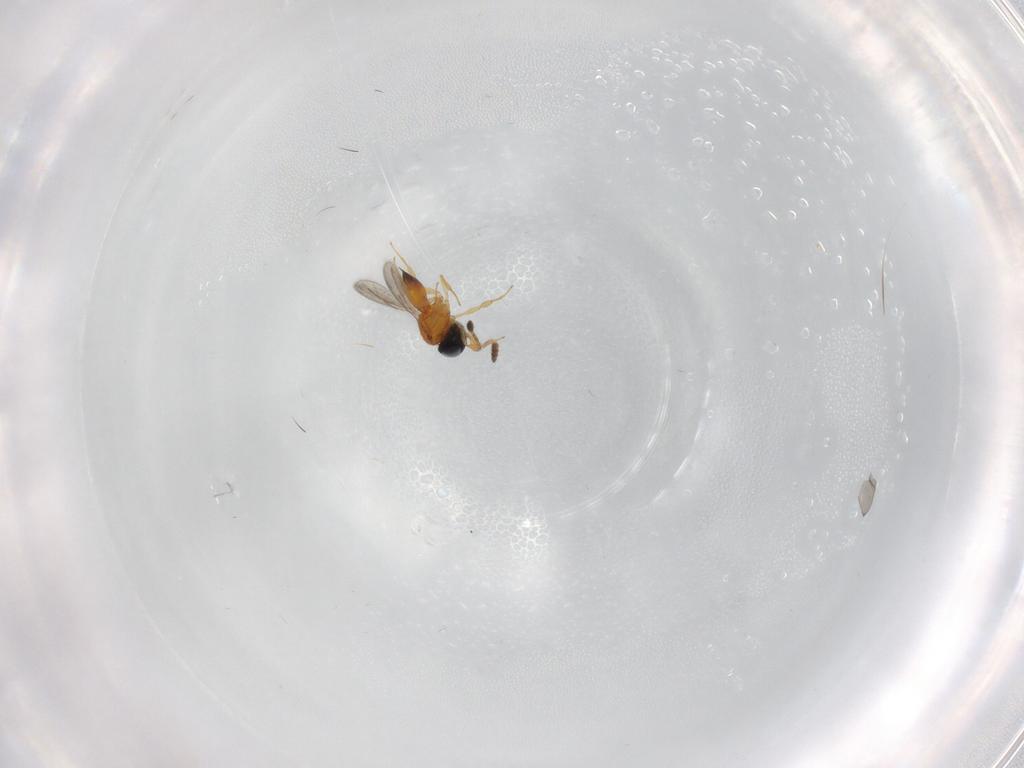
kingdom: Animalia
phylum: Arthropoda
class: Insecta
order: Hymenoptera
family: Scelionidae
